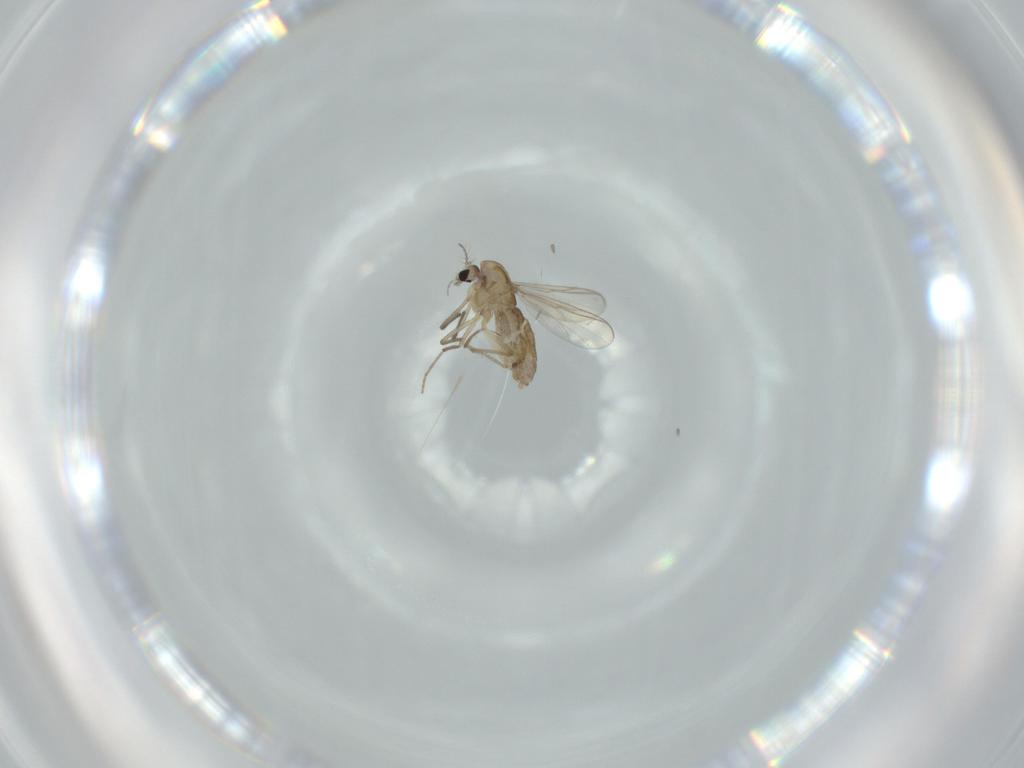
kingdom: Animalia
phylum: Arthropoda
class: Insecta
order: Diptera
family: Chironomidae
